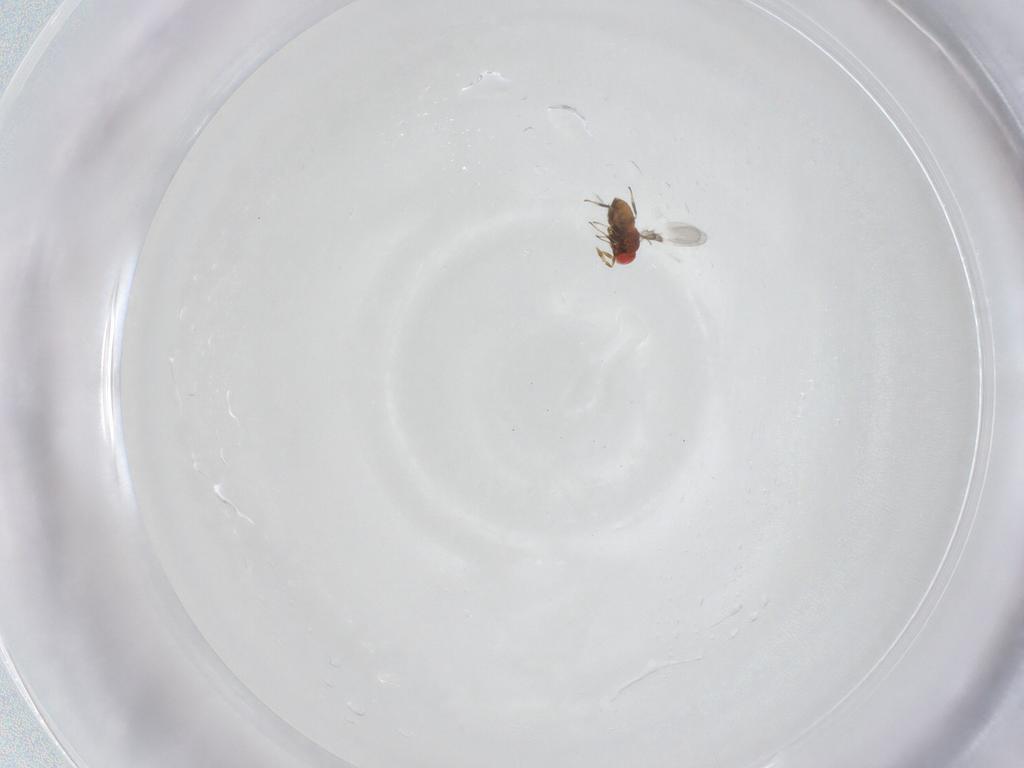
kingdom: Animalia
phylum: Arthropoda
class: Insecta
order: Hymenoptera
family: Trichogrammatidae
